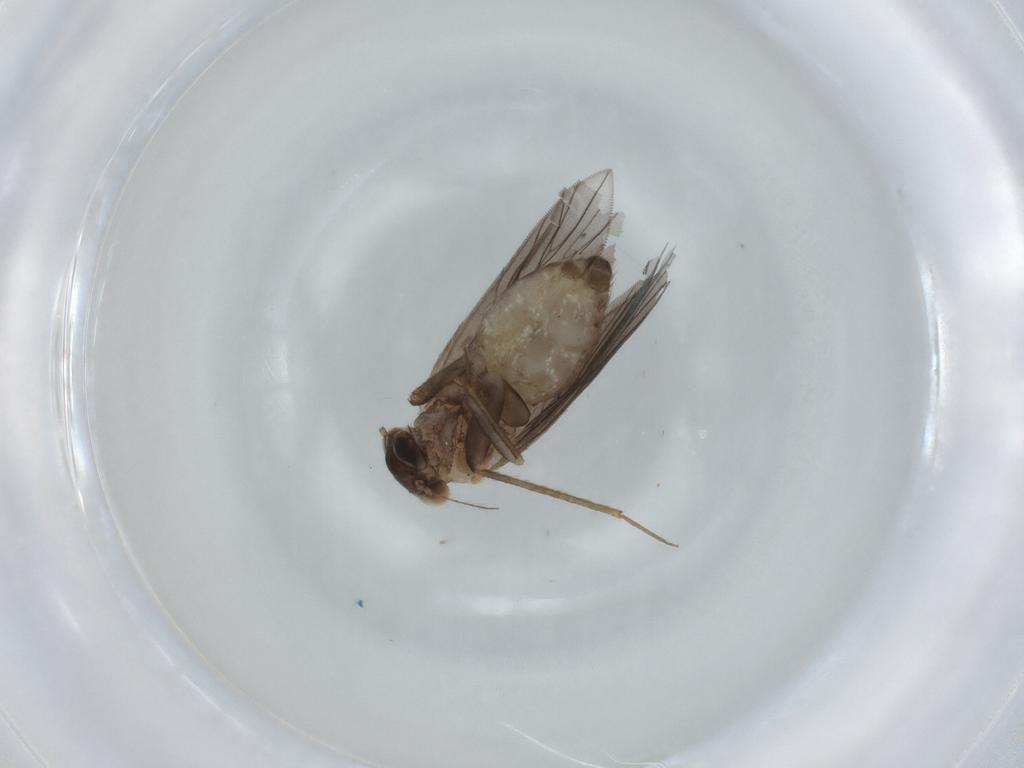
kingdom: Animalia
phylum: Arthropoda
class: Insecta
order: Psocodea
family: Lepidopsocidae
